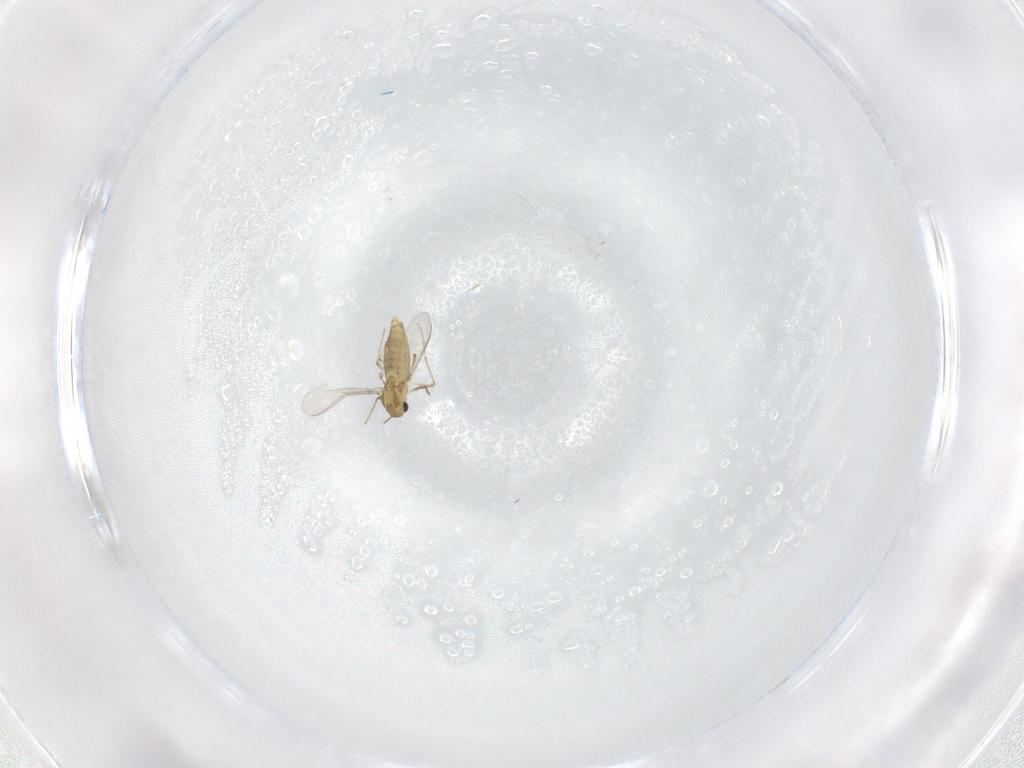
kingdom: Animalia
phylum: Arthropoda
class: Insecta
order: Diptera
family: Chironomidae
